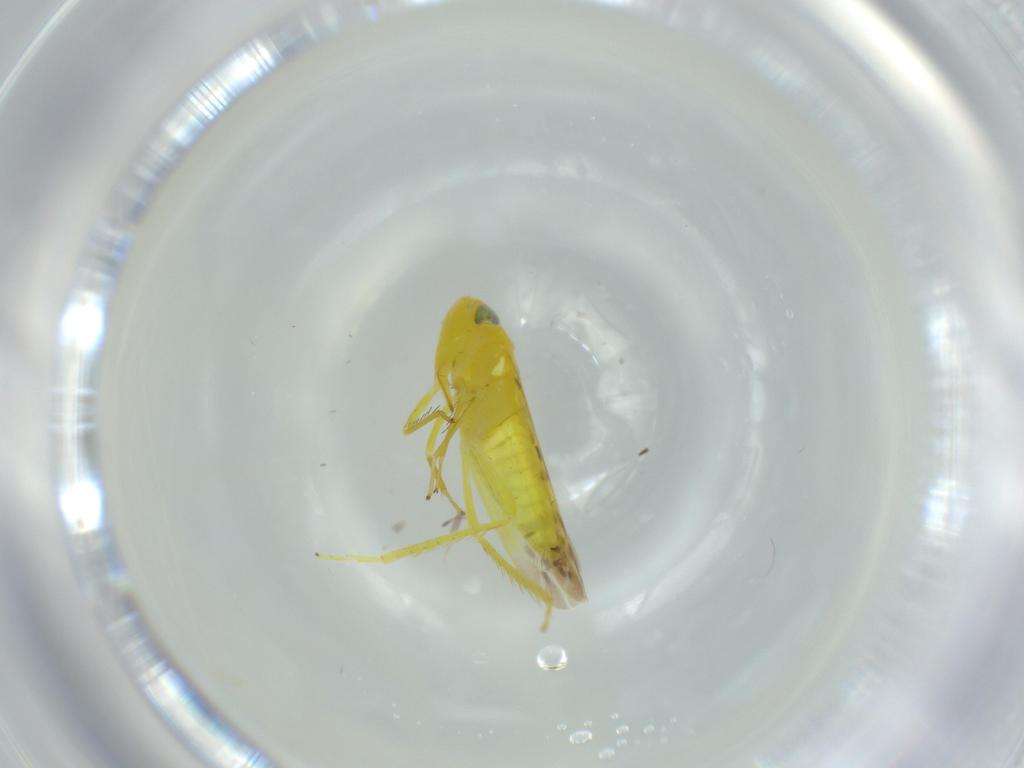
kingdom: Animalia
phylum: Arthropoda
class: Insecta
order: Hemiptera
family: Cicadellidae
